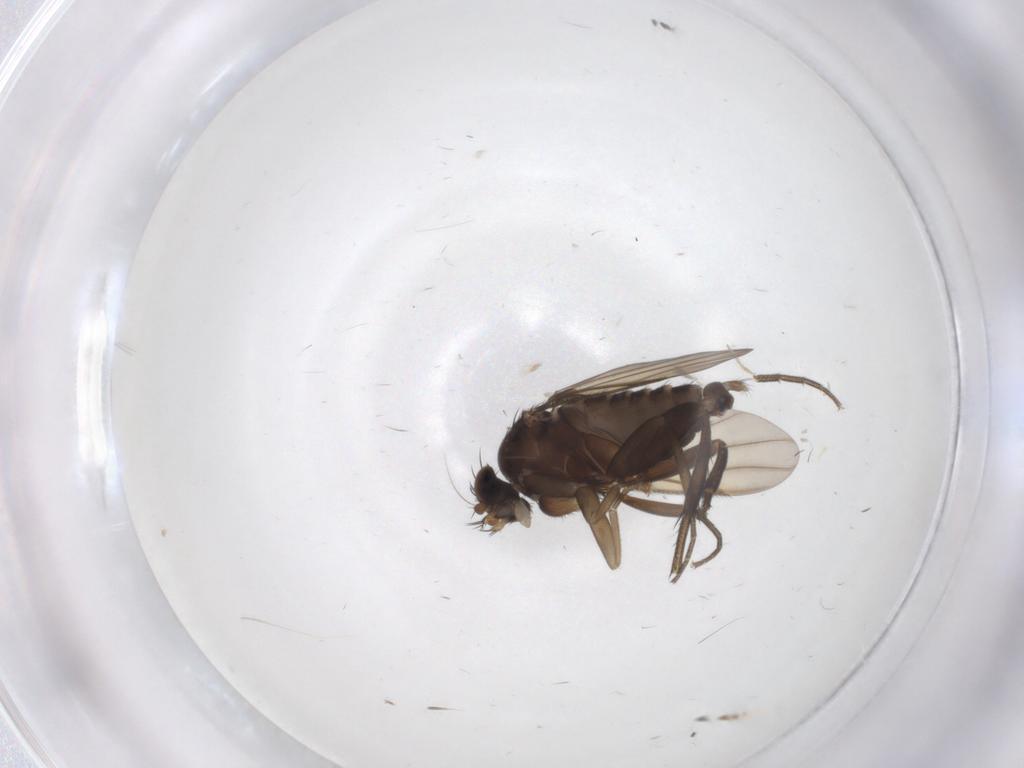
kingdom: Animalia
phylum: Arthropoda
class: Insecta
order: Diptera
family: Phoridae
